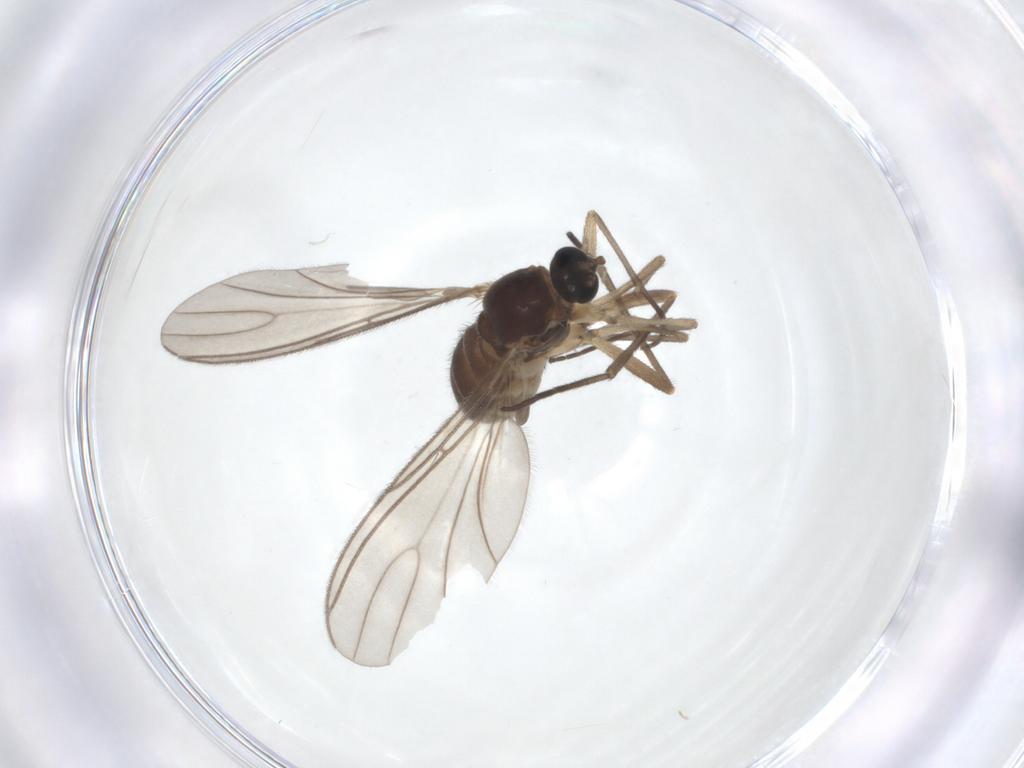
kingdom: Animalia
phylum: Arthropoda
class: Insecta
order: Diptera
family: Sciaridae
